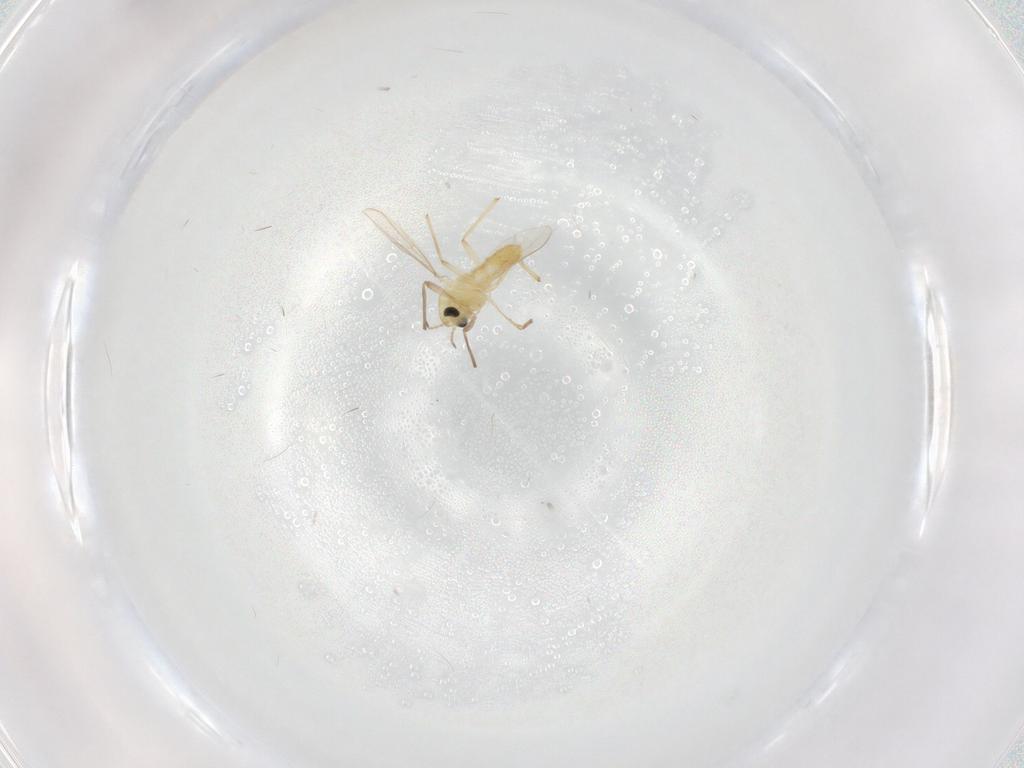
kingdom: Animalia
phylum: Arthropoda
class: Insecta
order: Diptera
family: Chironomidae
